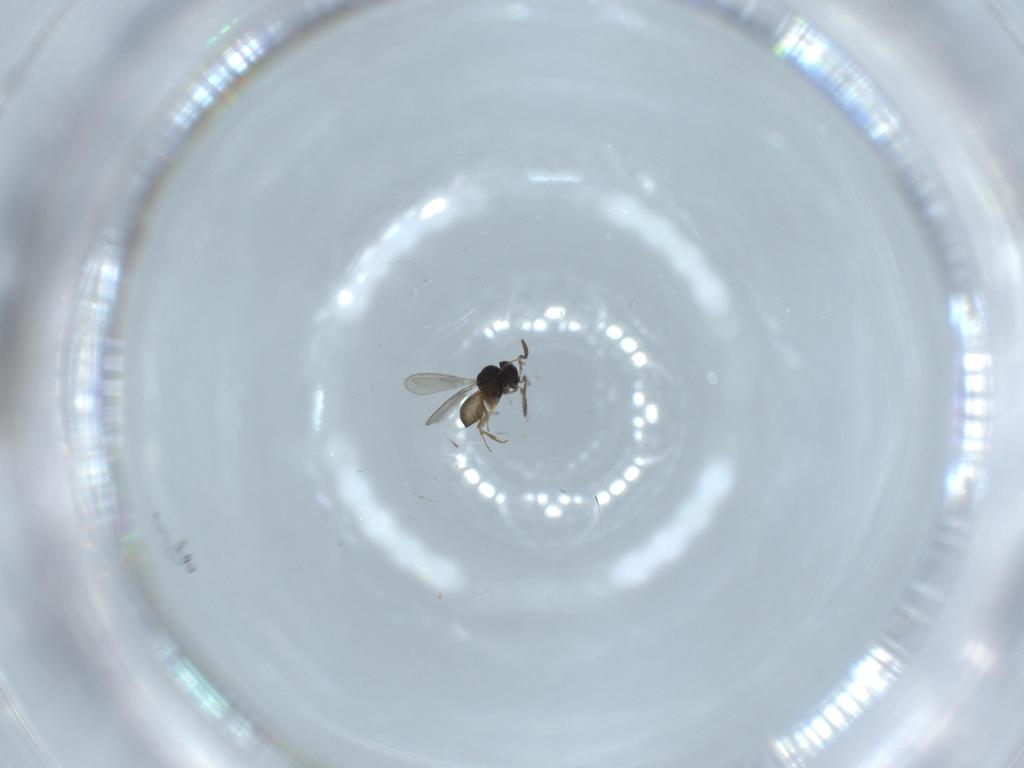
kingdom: Animalia
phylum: Arthropoda
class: Insecta
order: Hymenoptera
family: Scelionidae
